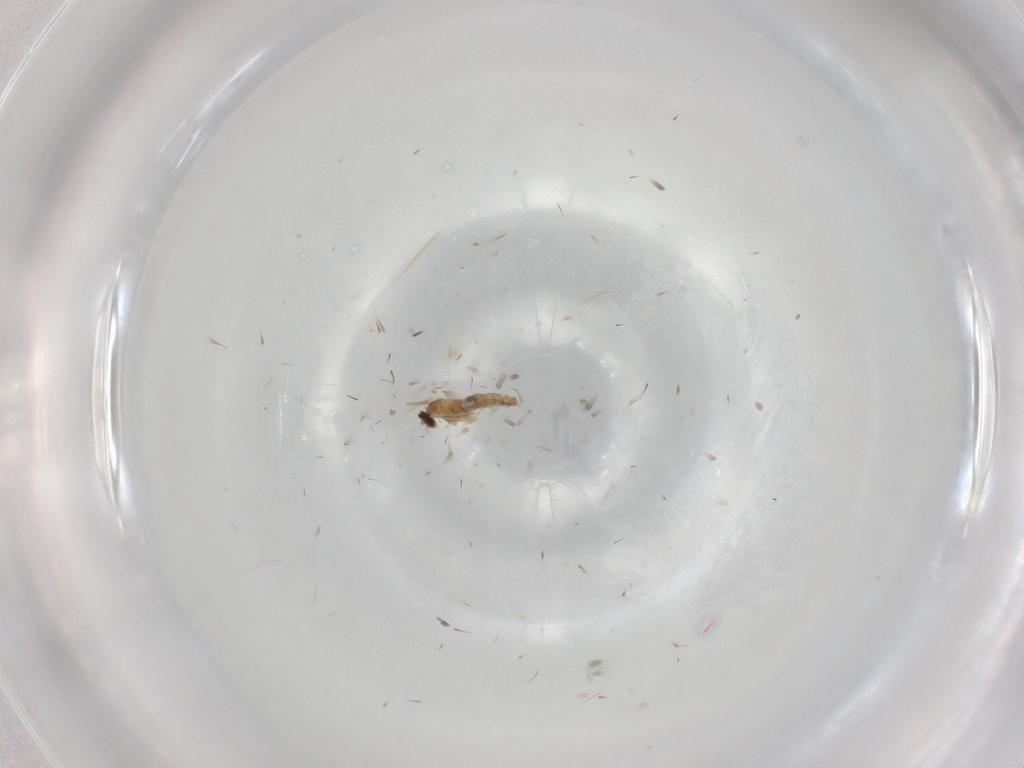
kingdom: Animalia
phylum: Arthropoda
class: Insecta
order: Diptera
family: Cecidomyiidae
